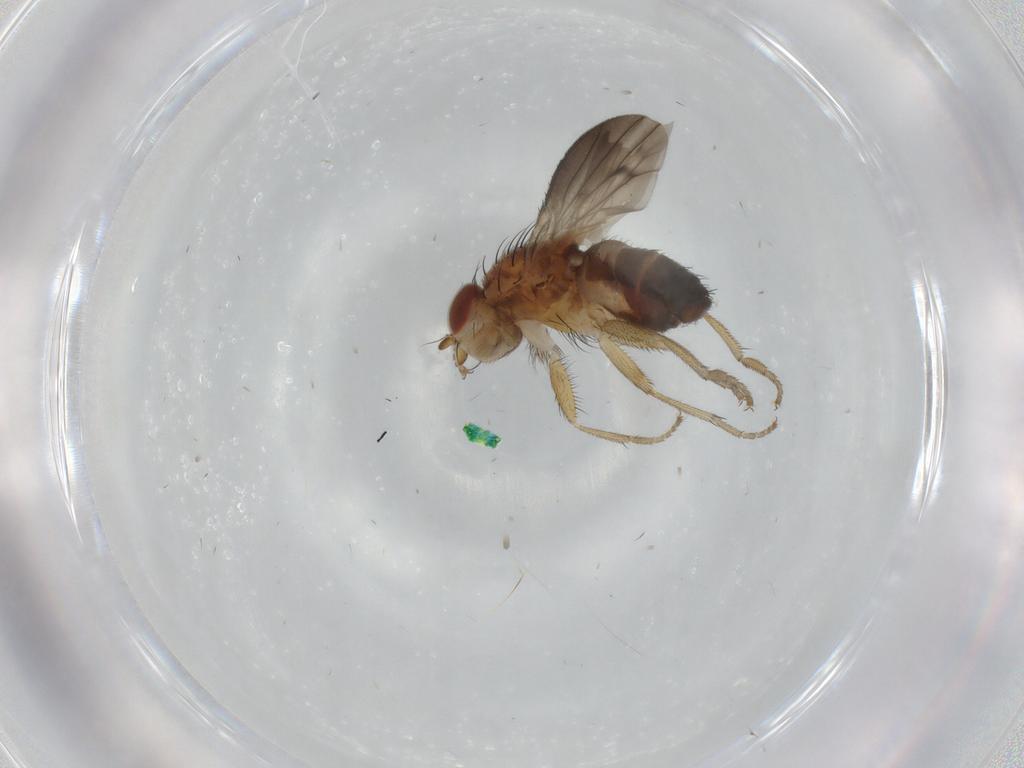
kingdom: Animalia
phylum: Arthropoda
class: Insecta
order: Diptera
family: Heleomyzidae
